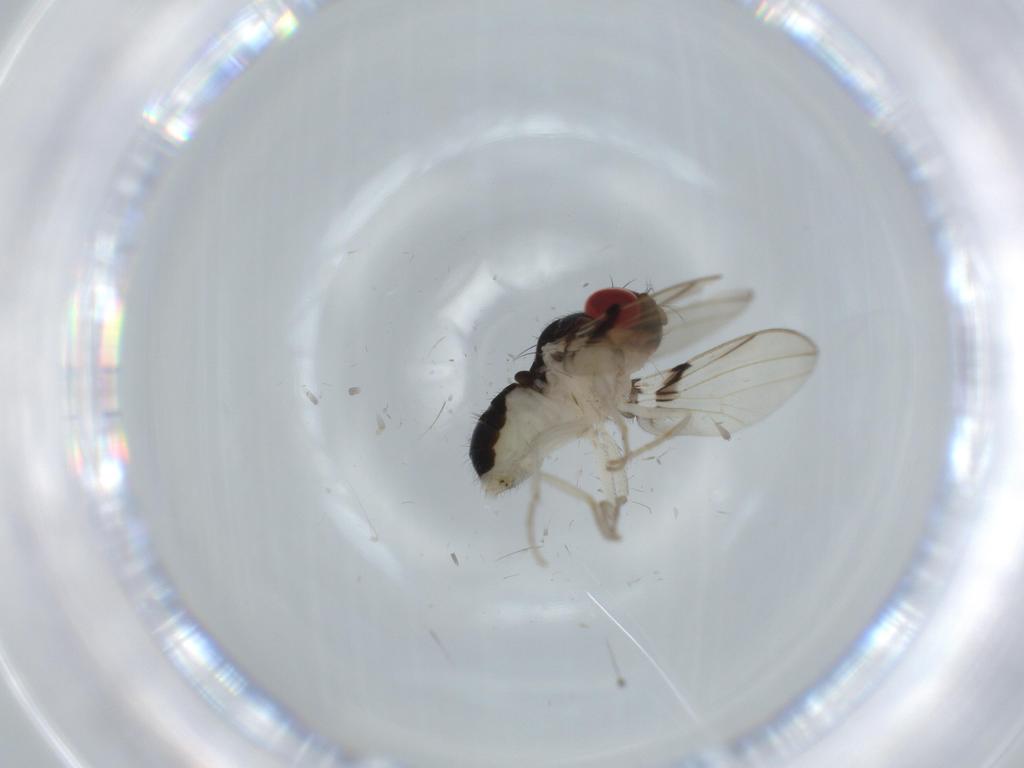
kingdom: Animalia
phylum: Arthropoda
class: Insecta
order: Diptera
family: Drosophilidae
